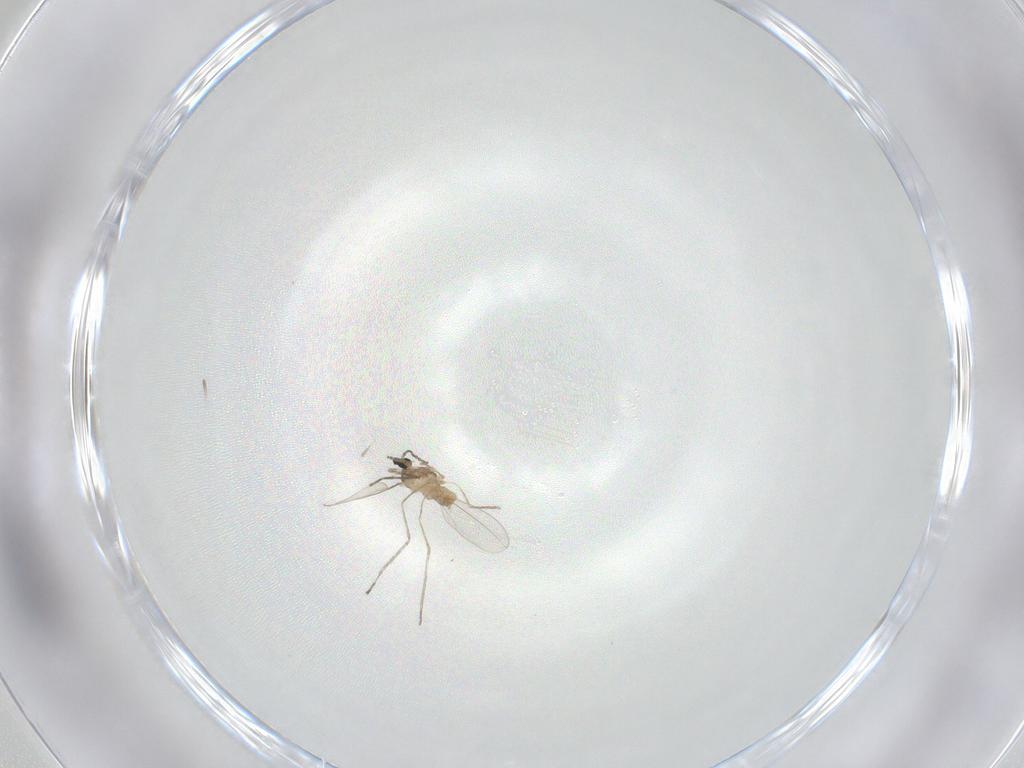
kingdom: Animalia
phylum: Arthropoda
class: Insecta
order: Diptera
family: Cecidomyiidae
